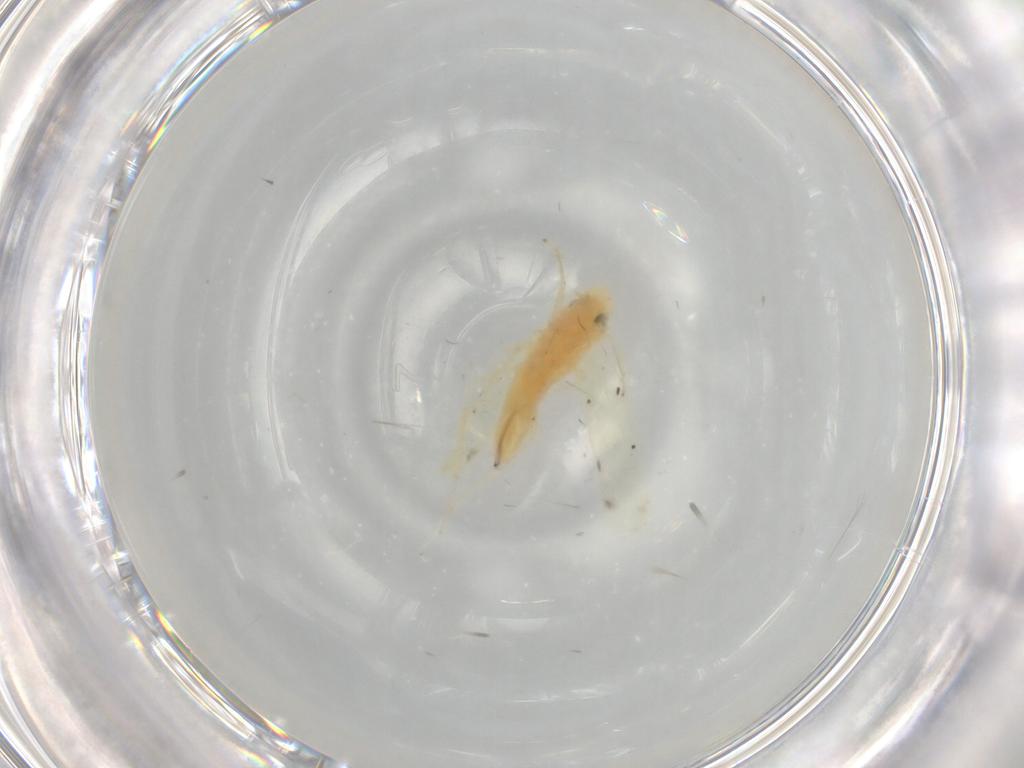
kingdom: Animalia
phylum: Arthropoda
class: Insecta
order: Hemiptera
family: Cicadellidae
